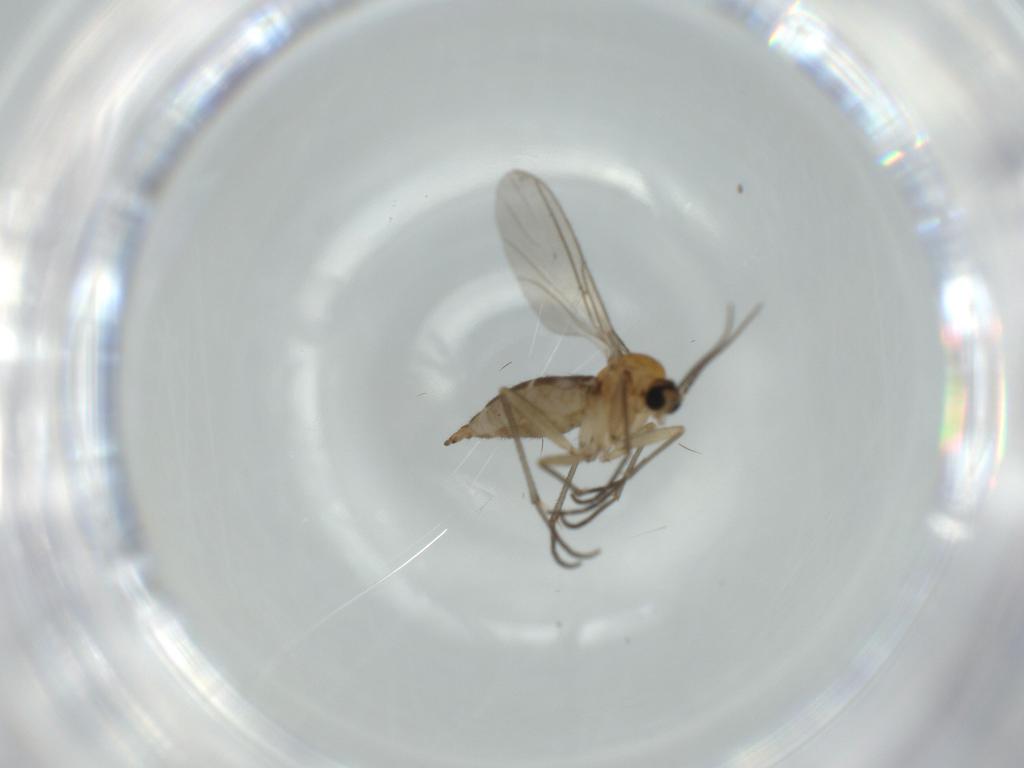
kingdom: Animalia
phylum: Arthropoda
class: Insecta
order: Diptera
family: Sciaridae
